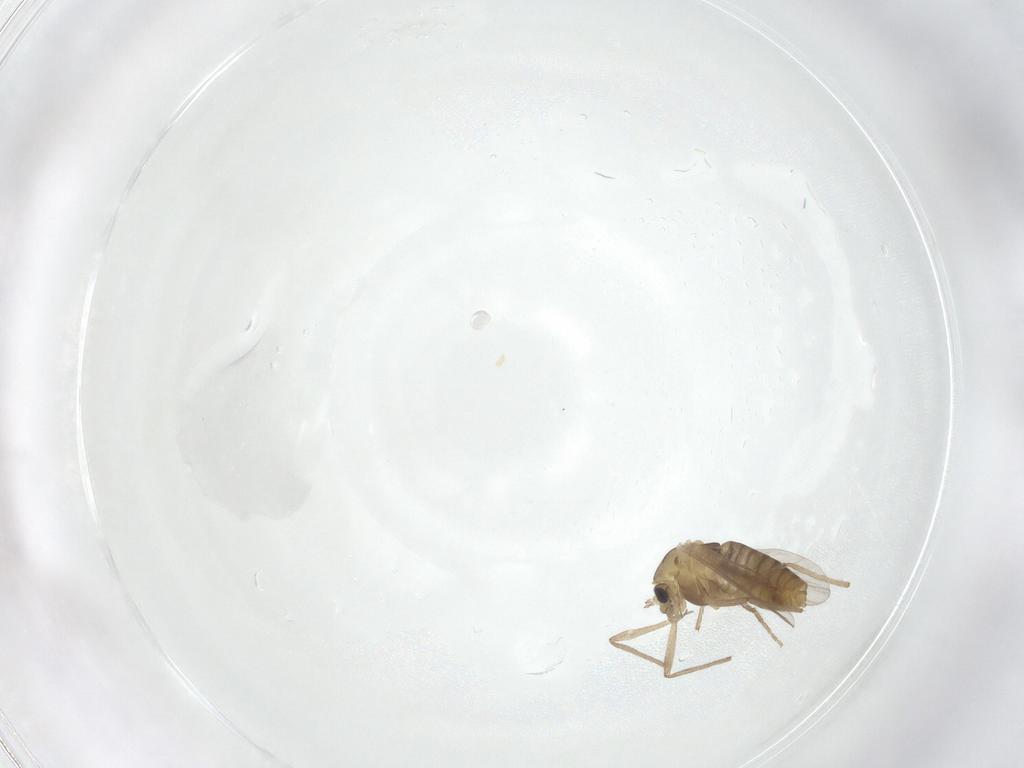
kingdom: Animalia
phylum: Arthropoda
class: Insecta
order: Diptera
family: Chironomidae
